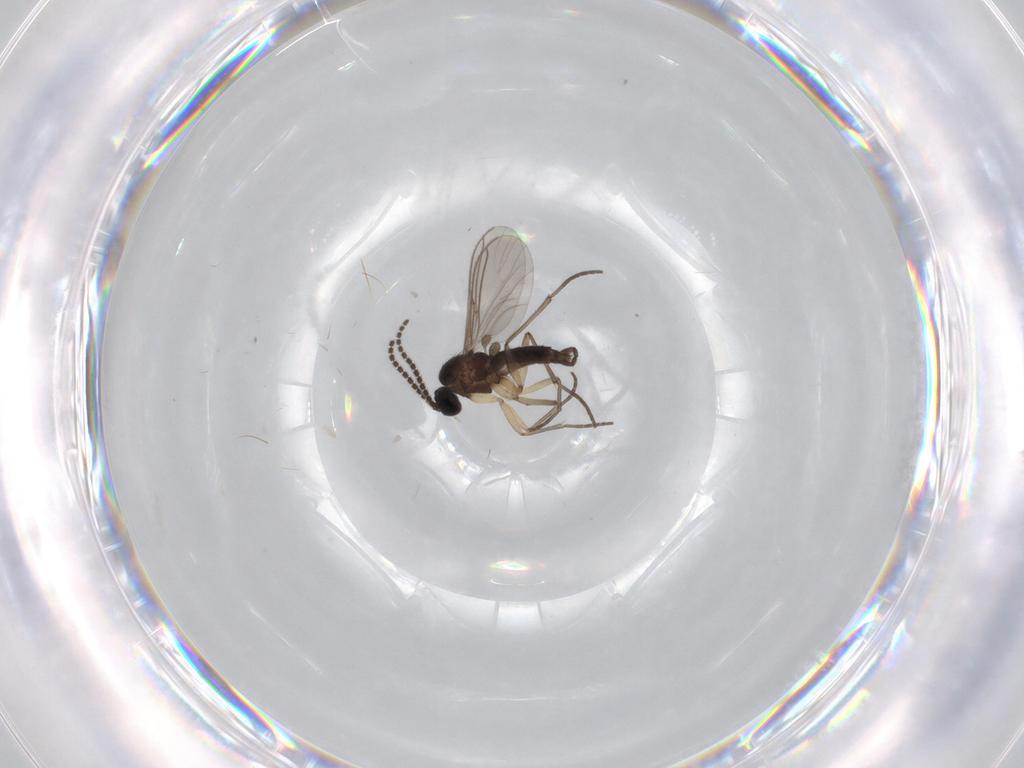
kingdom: Animalia
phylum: Arthropoda
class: Insecta
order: Diptera
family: Sciaridae
